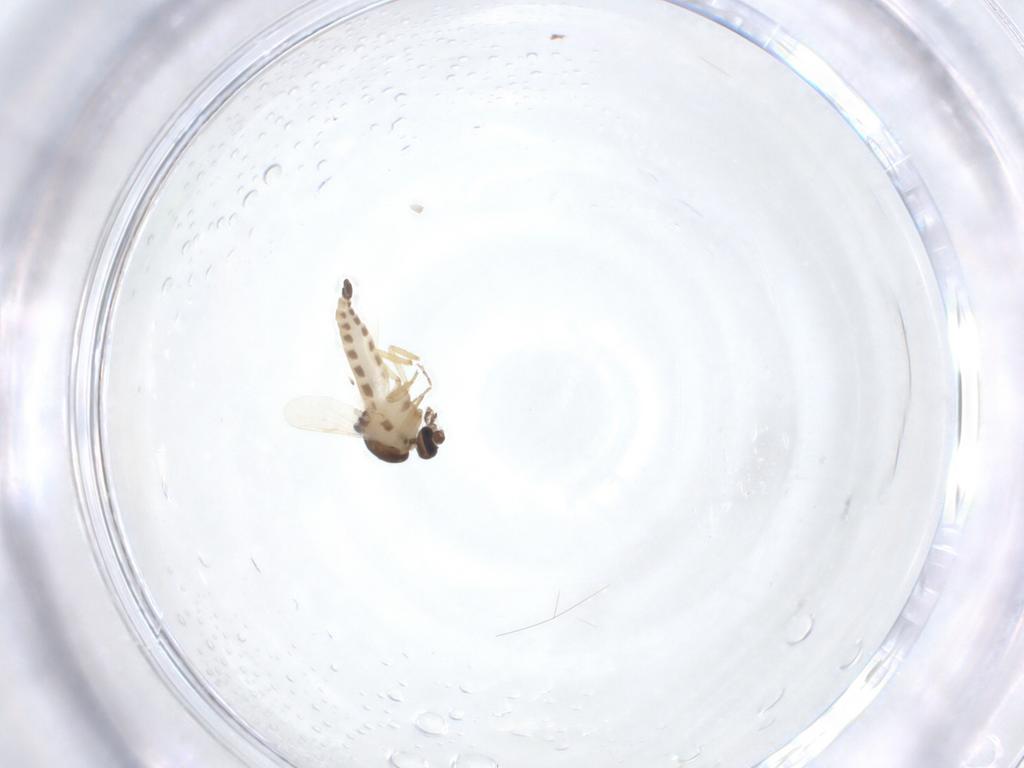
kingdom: Animalia
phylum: Arthropoda
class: Insecta
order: Diptera
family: Ceratopogonidae
